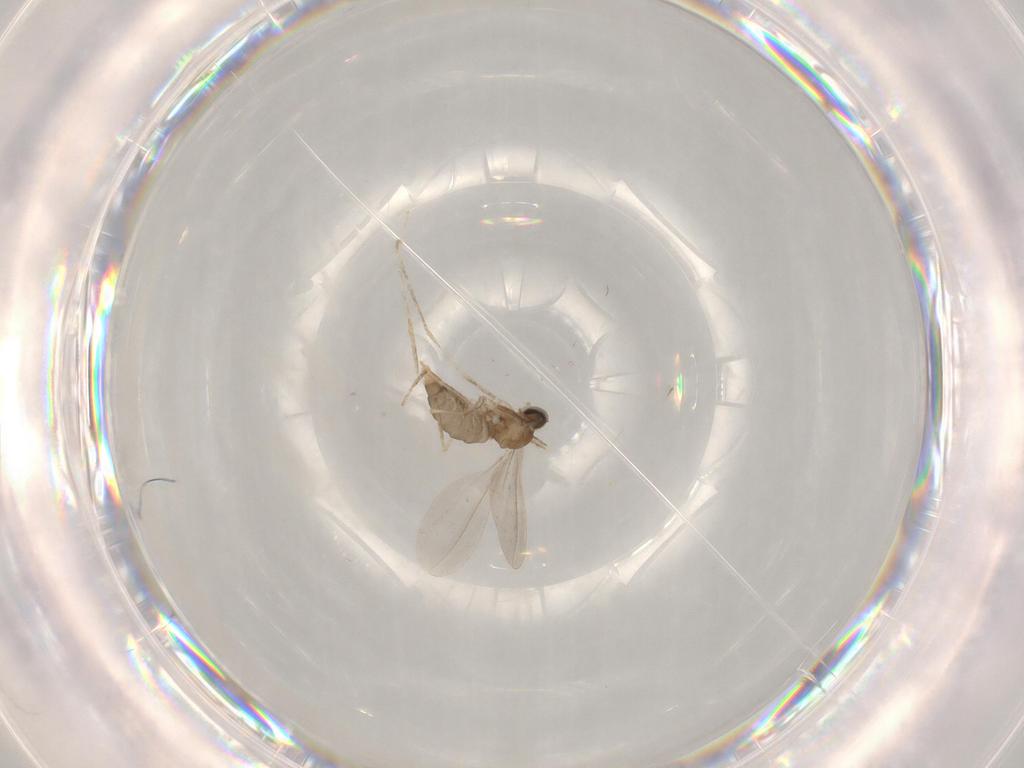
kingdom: Animalia
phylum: Arthropoda
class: Insecta
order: Diptera
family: Cecidomyiidae
